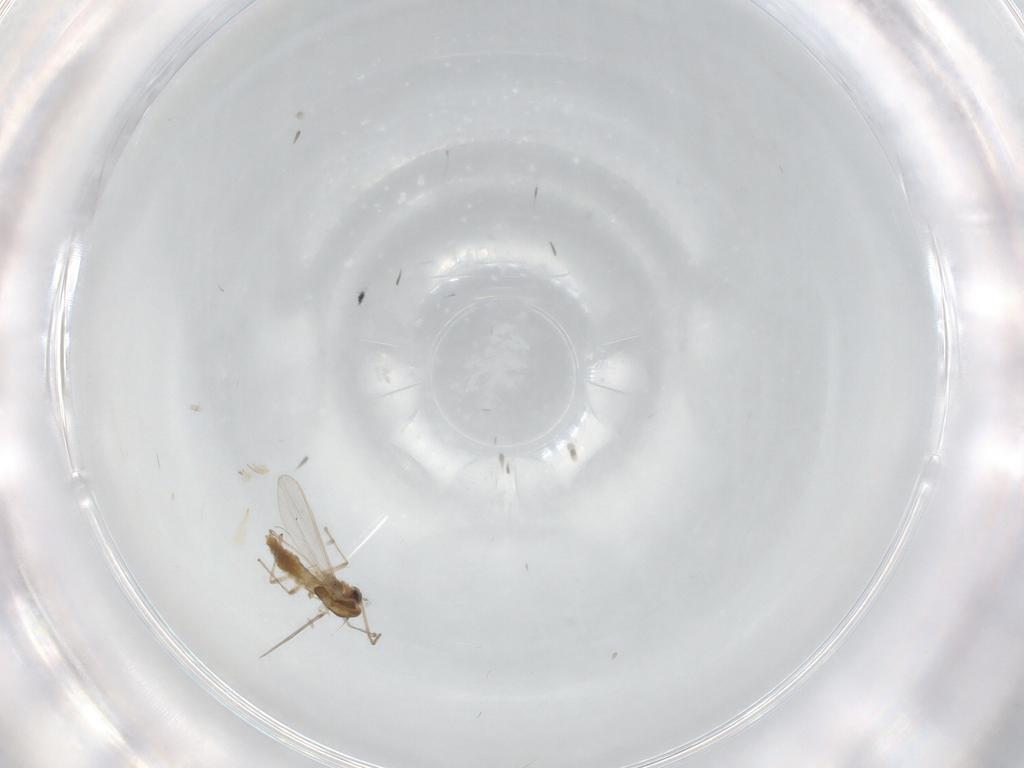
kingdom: Animalia
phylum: Arthropoda
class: Insecta
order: Diptera
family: Chironomidae
